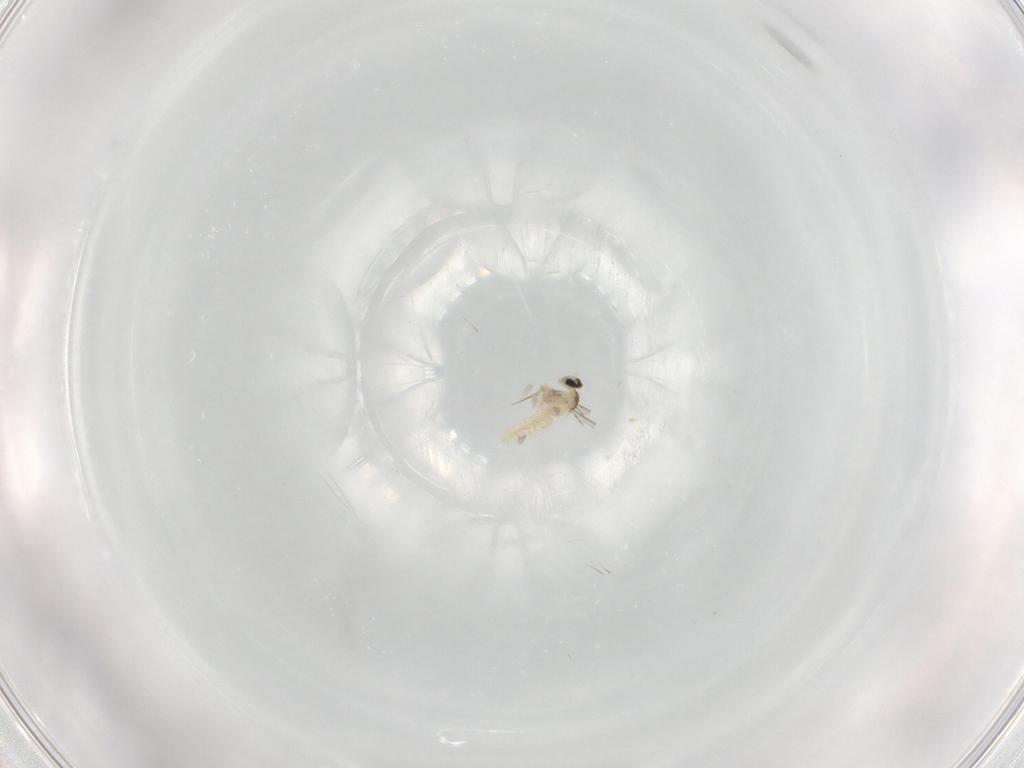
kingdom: Animalia
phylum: Arthropoda
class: Insecta
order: Diptera
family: Cecidomyiidae
